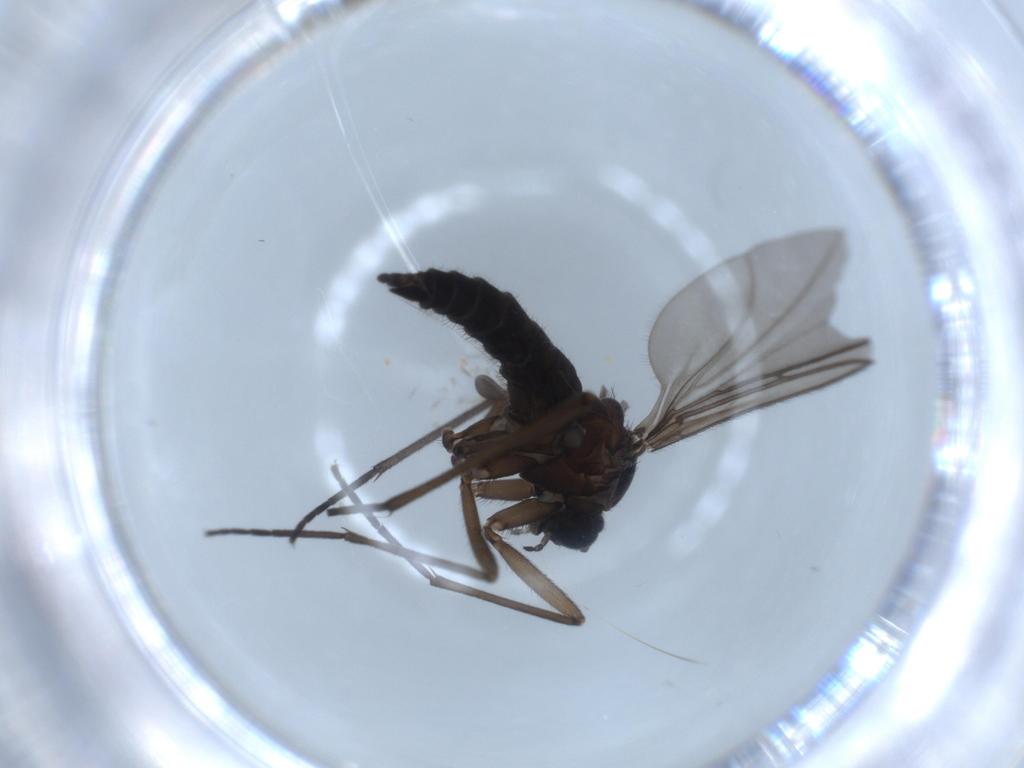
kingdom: Animalia
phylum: Arthropoda
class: Insecta
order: Diptera
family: Sciaridae
